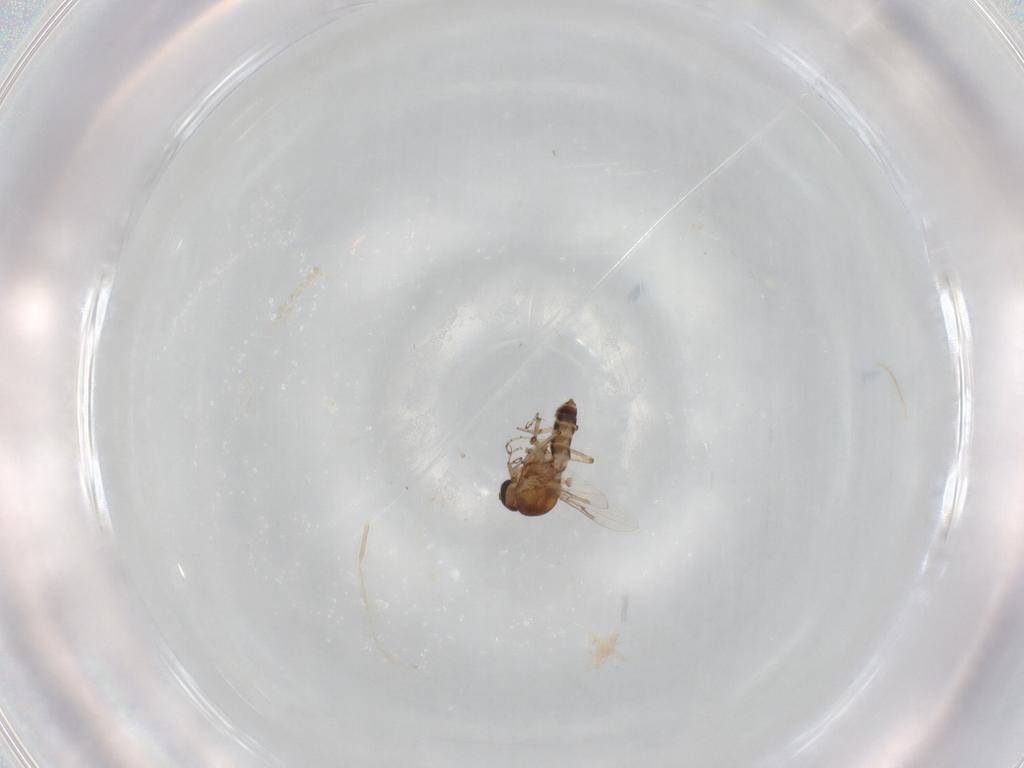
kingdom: Animalia
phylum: Arthropoda
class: Insecta
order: Diptera
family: Ceratopogonidae
